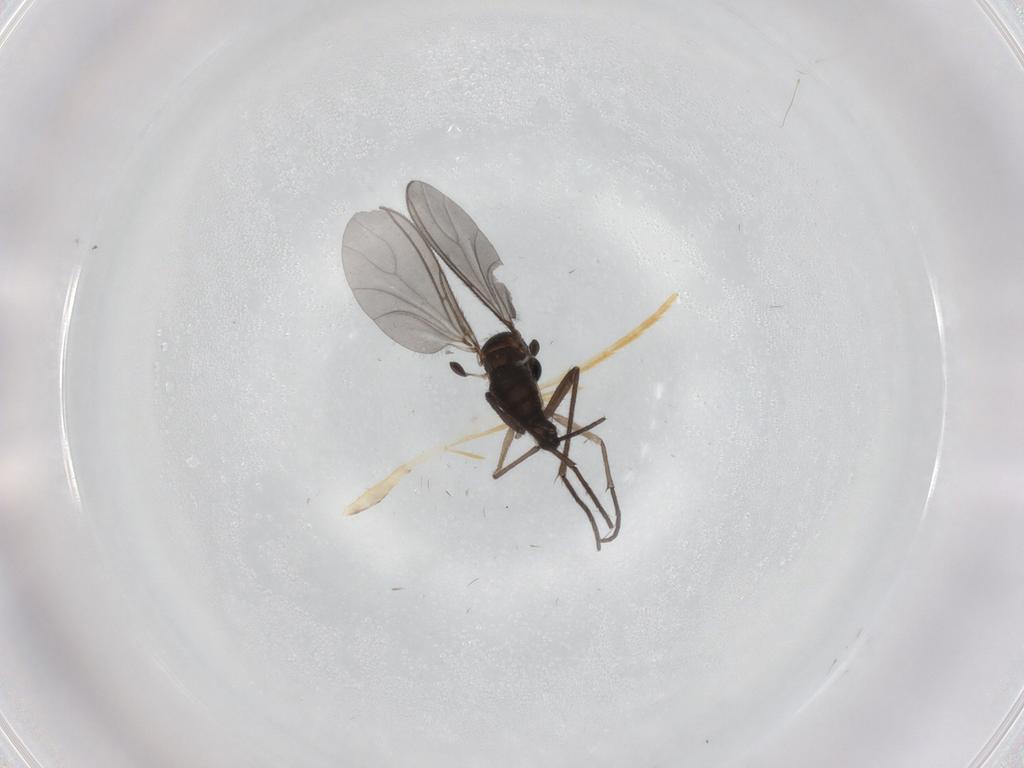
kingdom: Animalia
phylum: Arthropoda
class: Insecta
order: Diptera
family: Sciaridae
